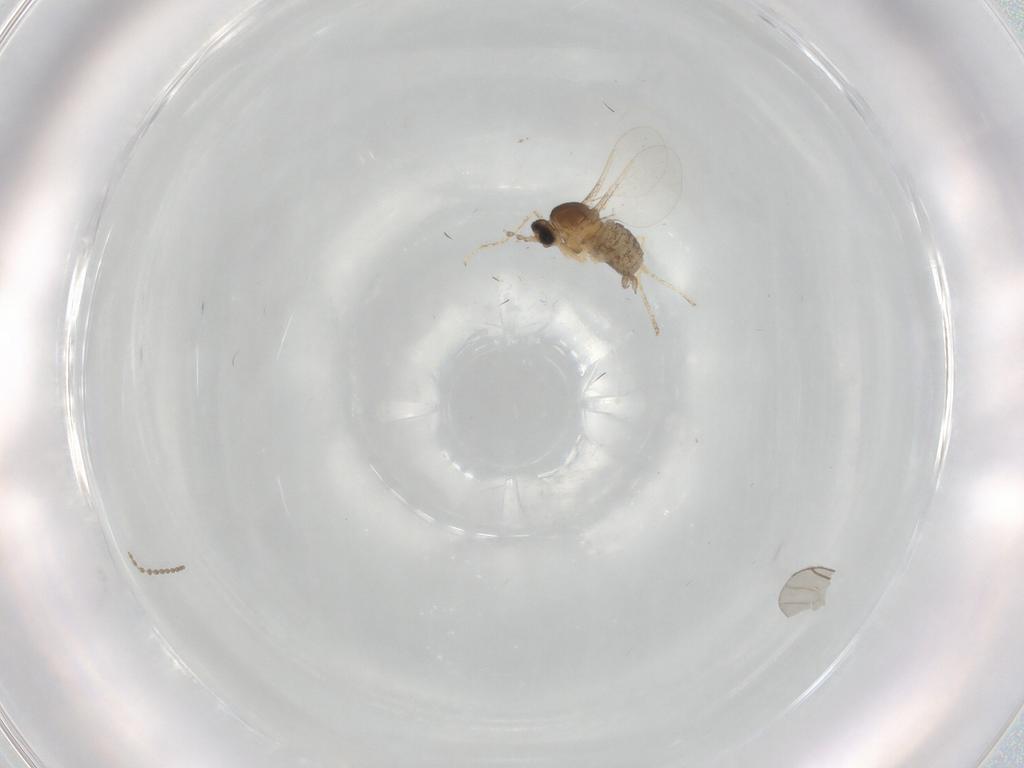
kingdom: Animalia
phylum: Arthropoda
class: Insecta
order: Diptera
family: Cecidomyiidae
